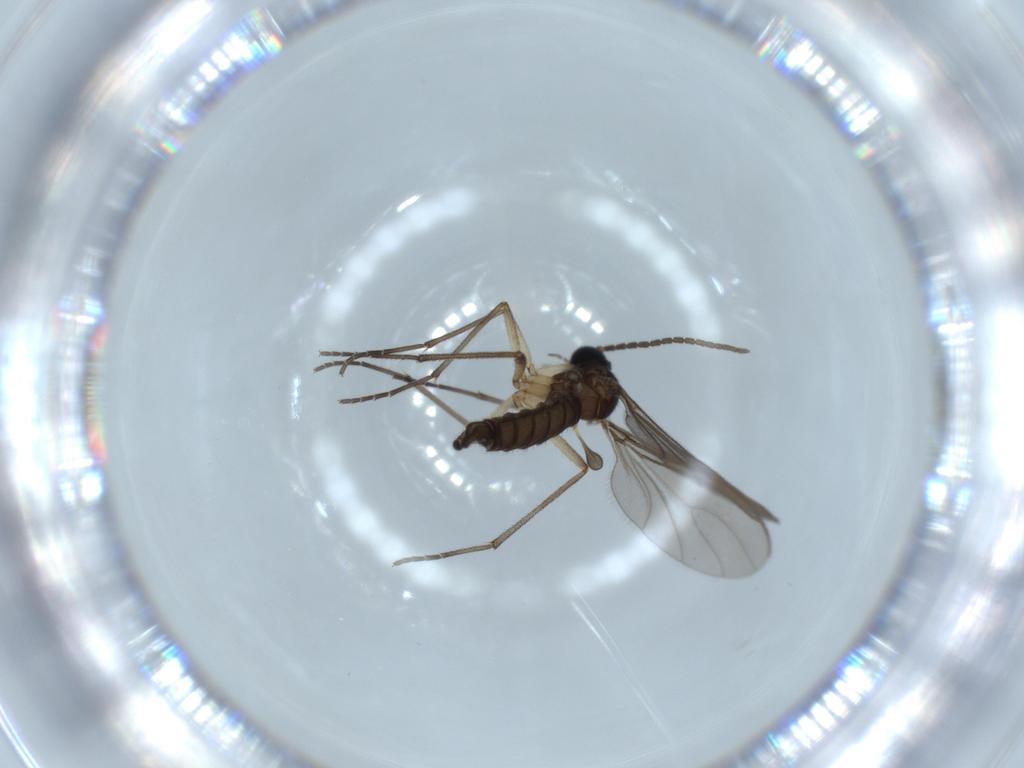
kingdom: Animalia
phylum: Arthropoda
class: Insecta
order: Diptera
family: Sciaridae
